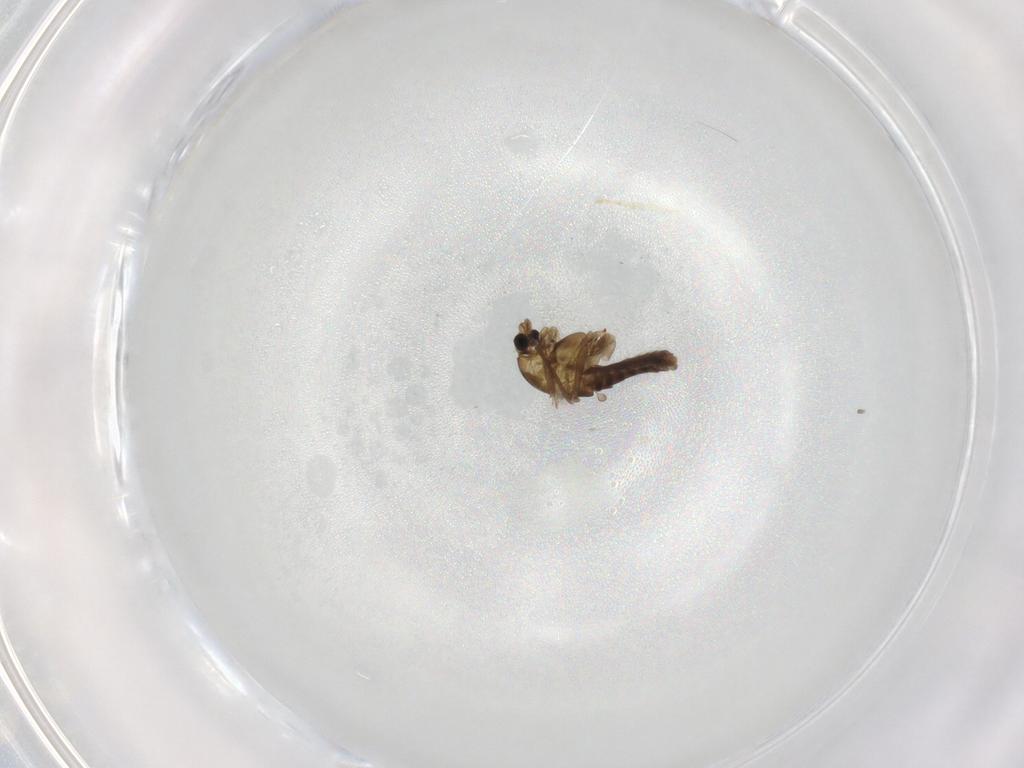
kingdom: Animalia
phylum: Arthropoda
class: Insecta
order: Diptera
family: Chironomidae
